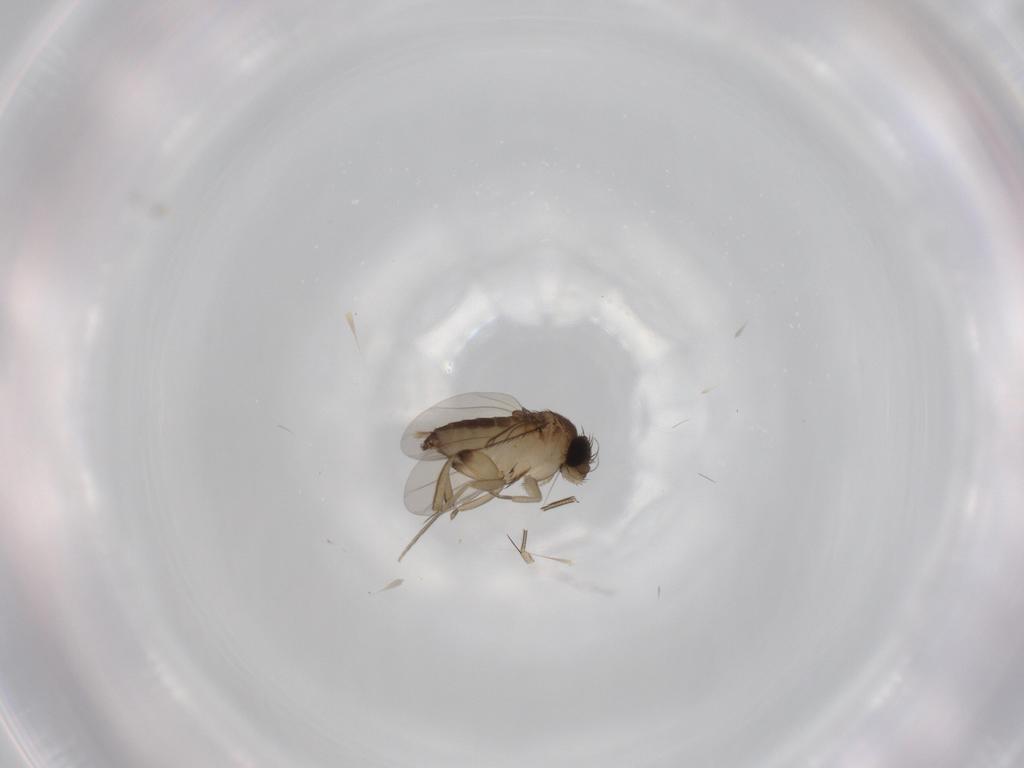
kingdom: Animalia
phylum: Arthropoda
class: Insecta
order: Diptera
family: Phoridae
